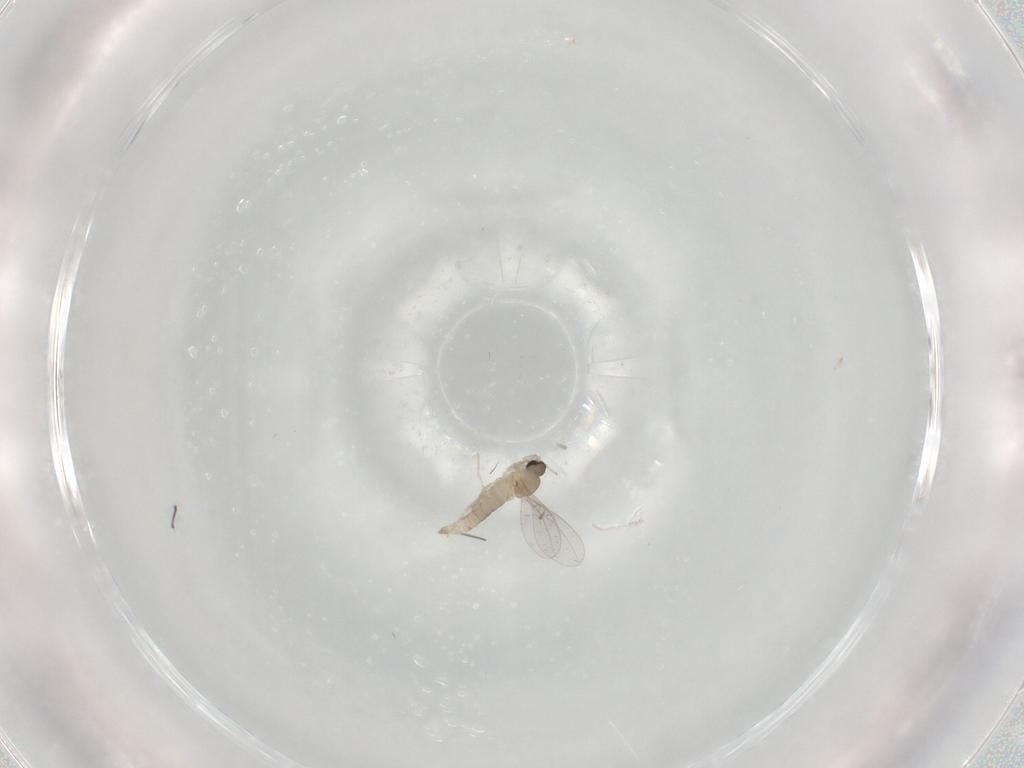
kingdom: Animalia
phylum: Arthropoda
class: Insecta
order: Diptera
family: Cecidomyiidae
